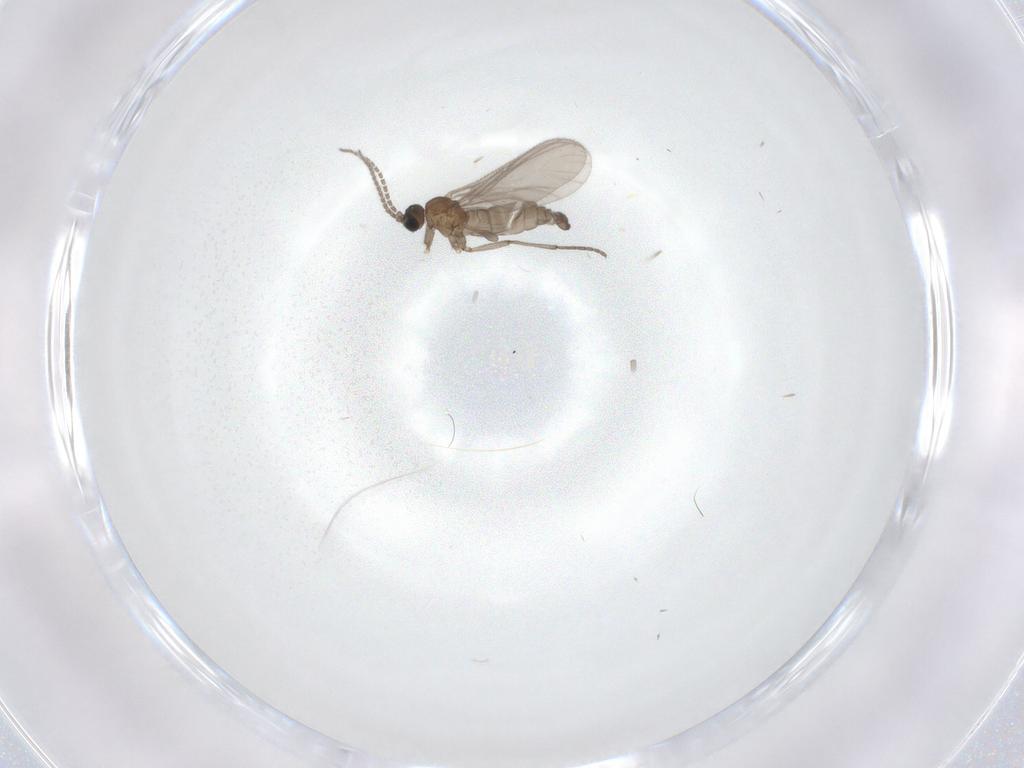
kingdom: Animalia
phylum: Arthropoda
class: Insecta
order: Diptera
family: Sciaridae
